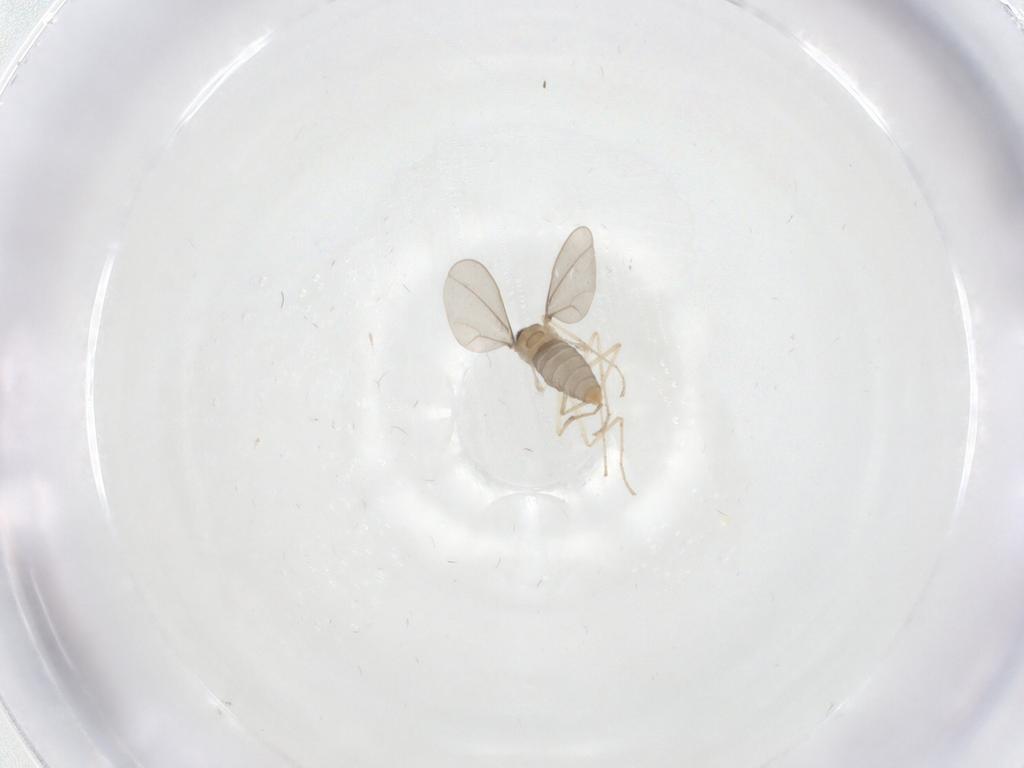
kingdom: Animalia
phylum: Arthropoda
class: Insecta
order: Diptera
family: Cecidomyiidae
